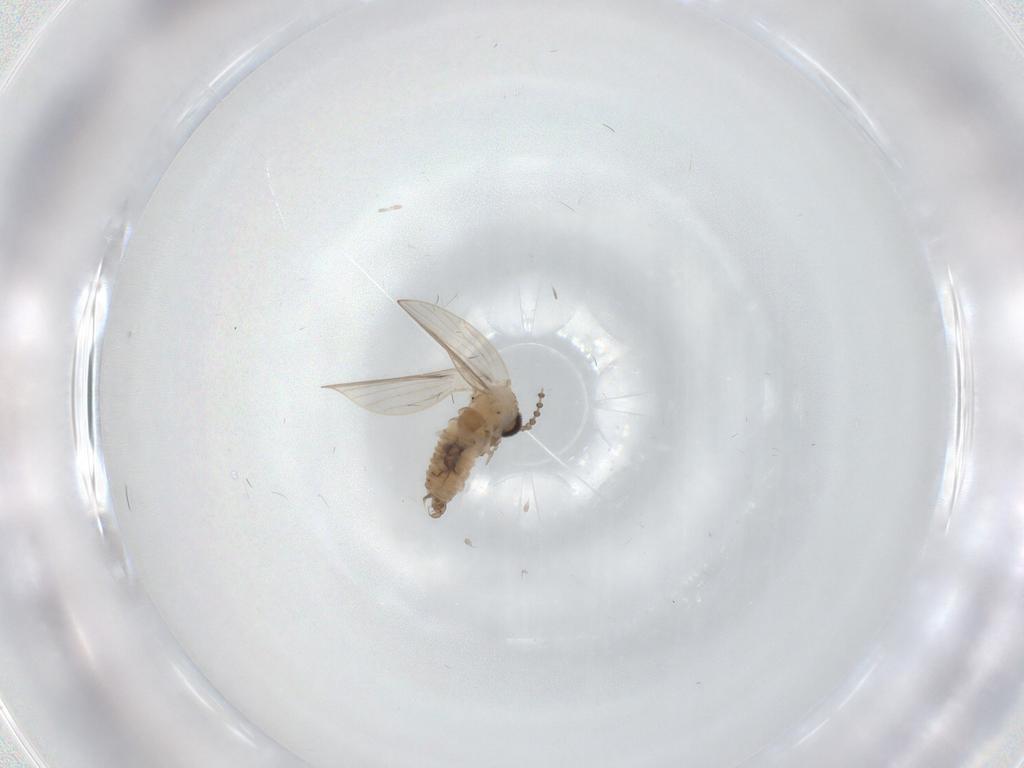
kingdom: Animalia
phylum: Arthropoda
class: Insecta
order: Diptera
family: Psychodidae
